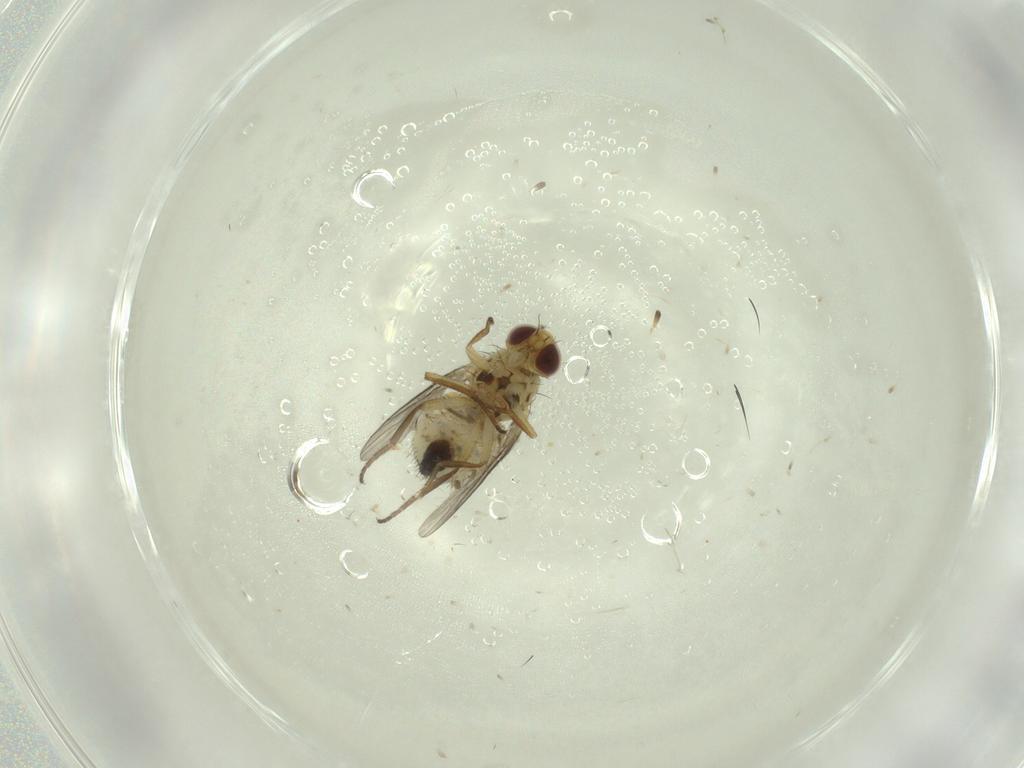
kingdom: Animalia
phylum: Arthropoda
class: Insecta
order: Diptera
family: Agromyzidae
